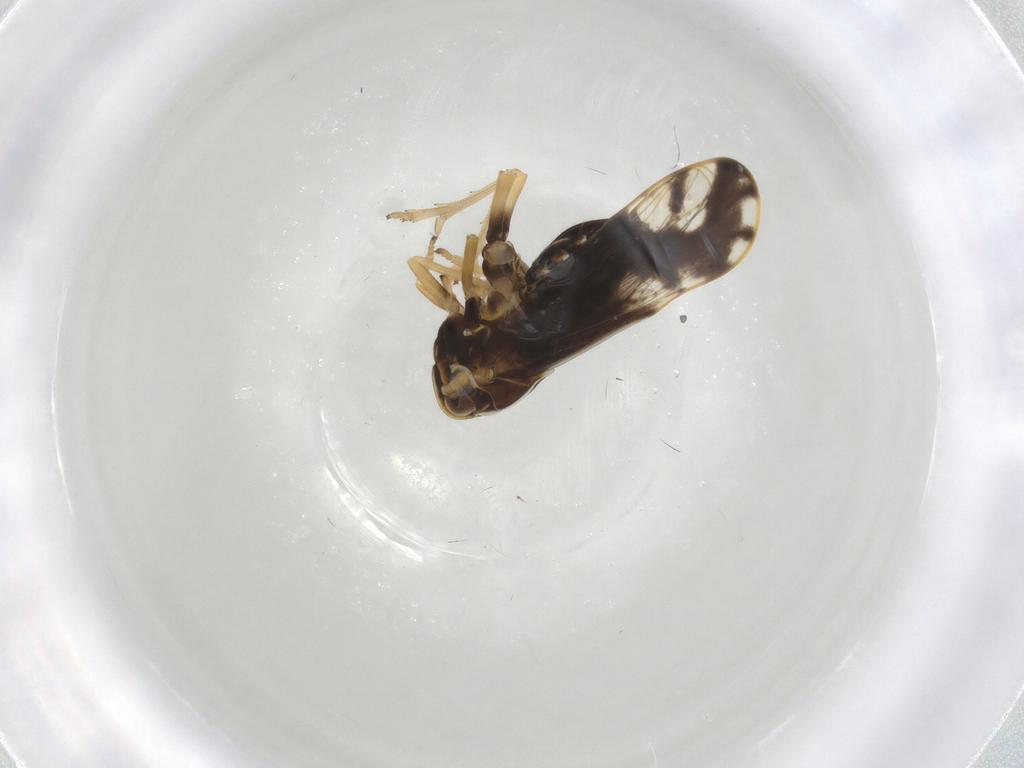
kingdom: Animalia
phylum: Arthropoda
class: Insecta
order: Hemiptera
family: Delphacidae
